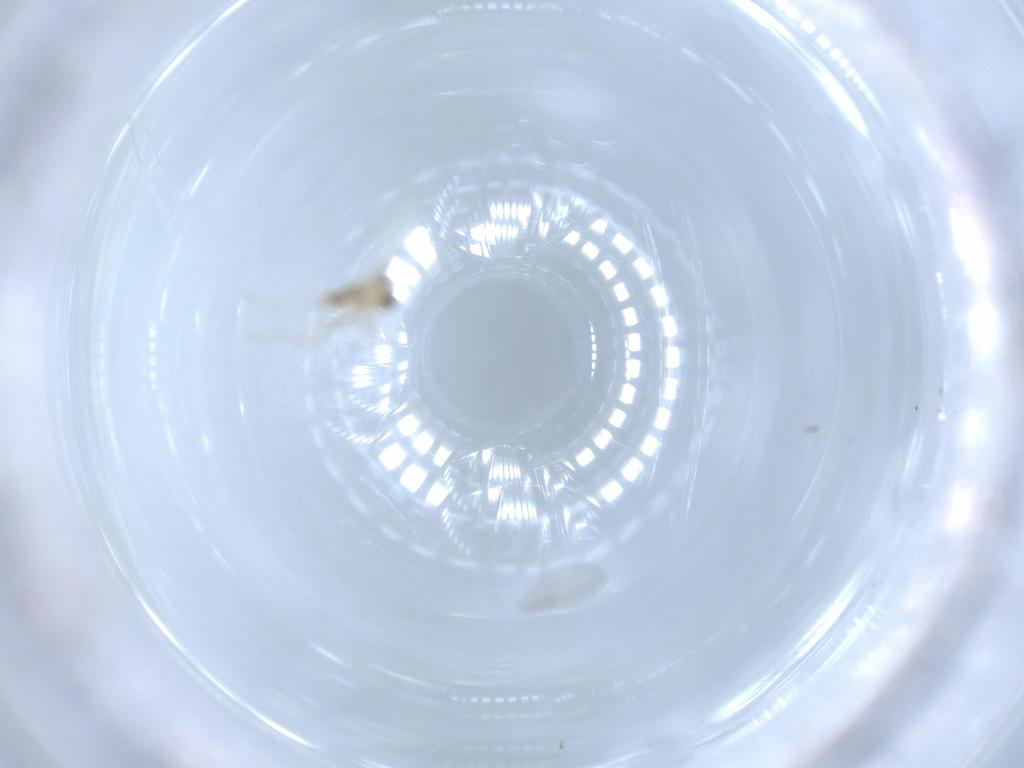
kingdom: Animalia
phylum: Arthropoda
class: Insecta
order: Diptera
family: Cecidomyiidae
